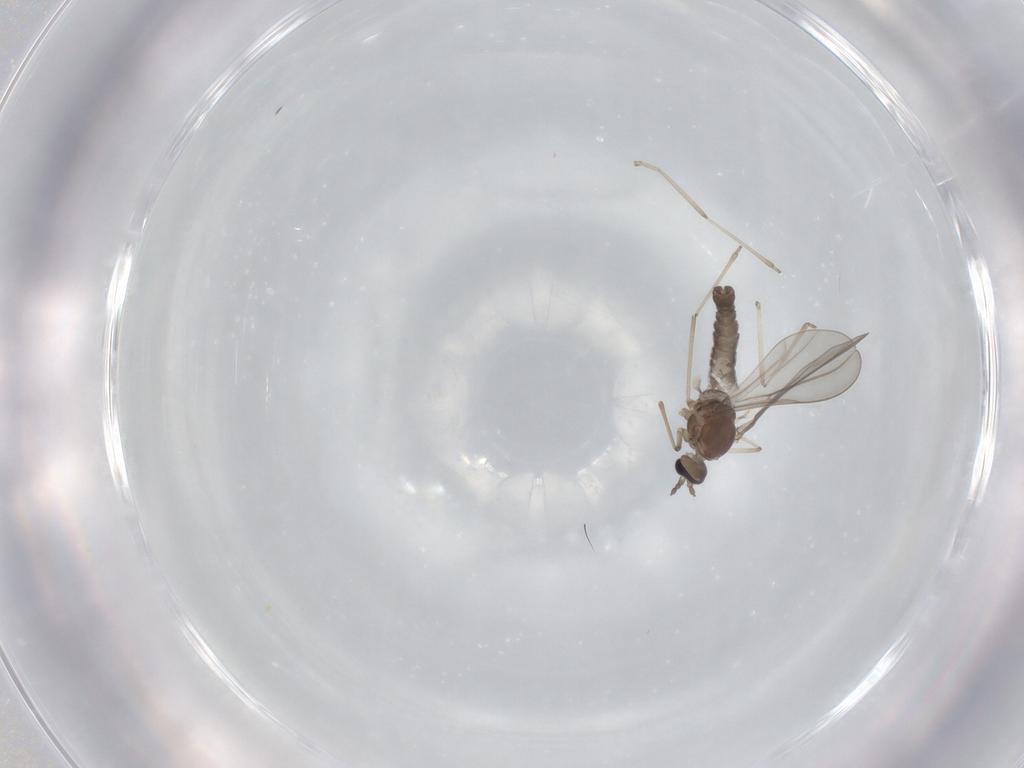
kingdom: Animalia
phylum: Arthropoda
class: Insecta
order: Diptera
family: Cecidomyiidae
